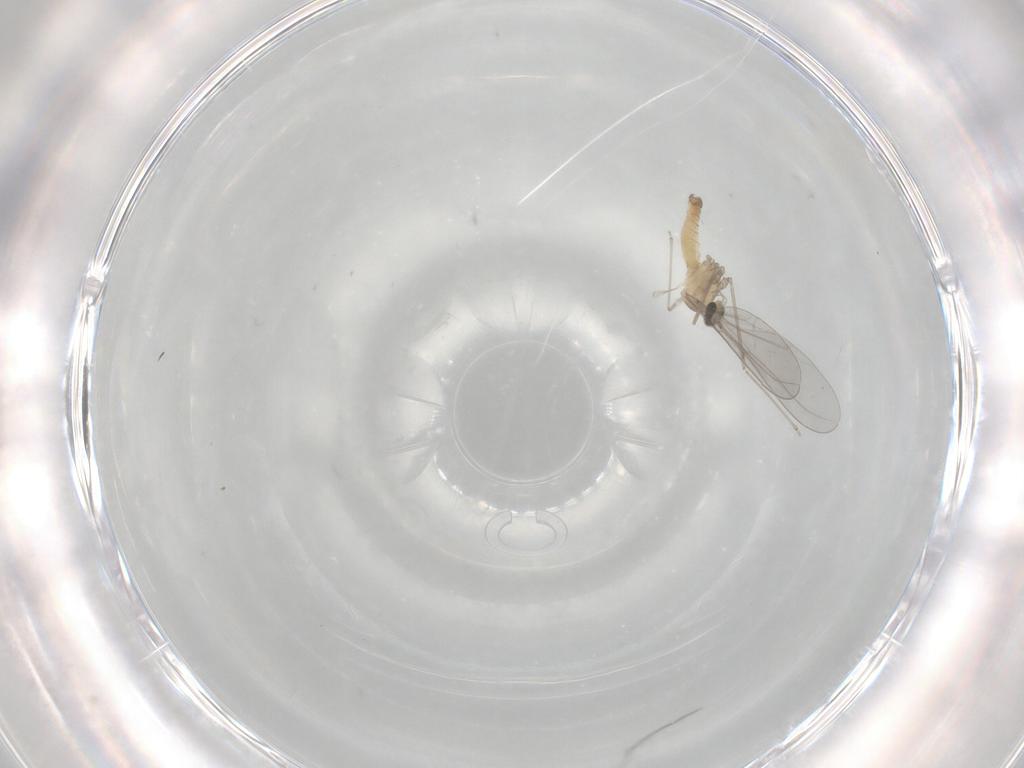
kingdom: Animalia
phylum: Arthropoda
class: Insecta
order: Diptera
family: Cecidomyiidae
